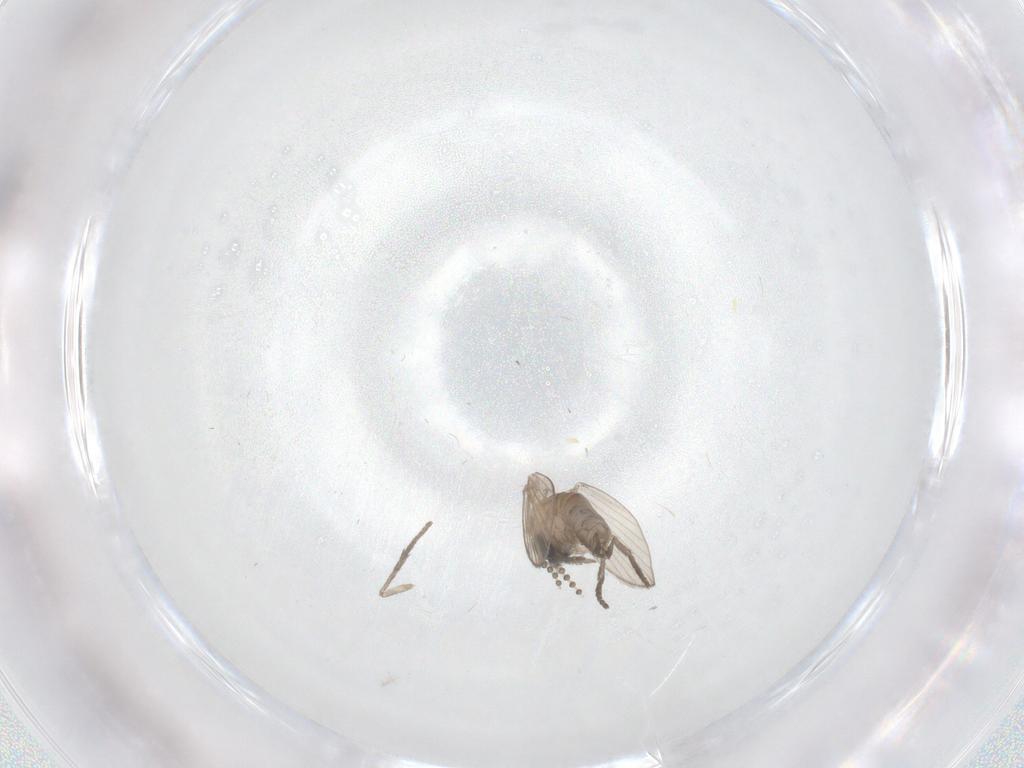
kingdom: Animalia
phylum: Arthropoda
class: Insecta
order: Diptera
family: Psychodidae
